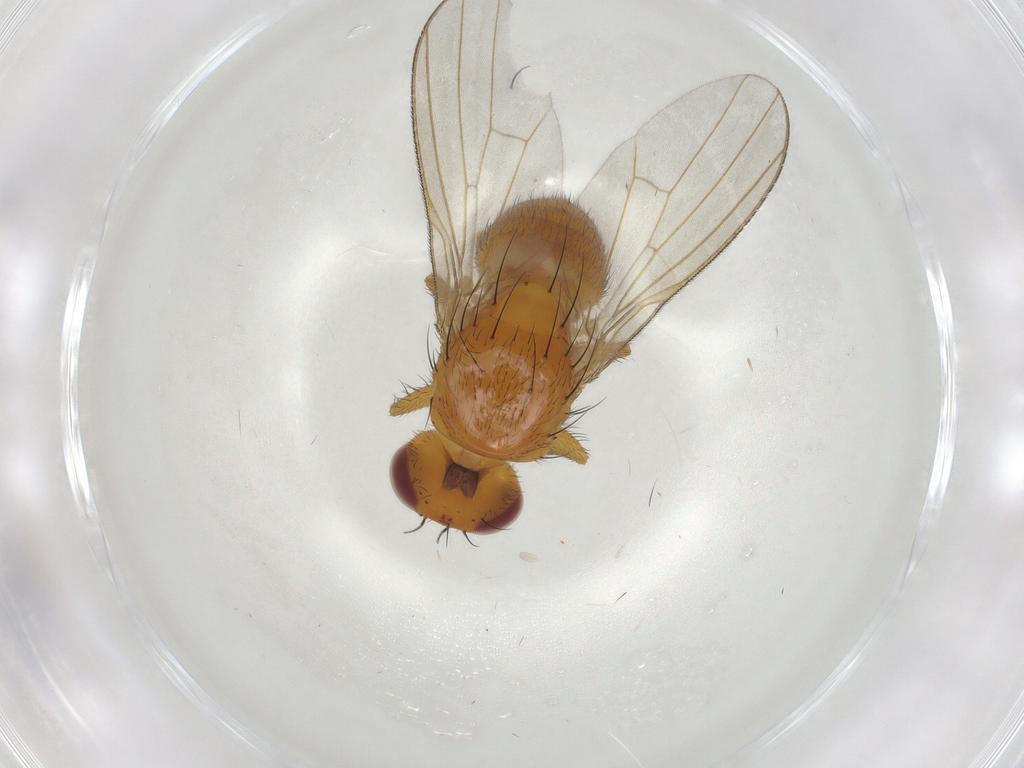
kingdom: Animalia
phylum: Arthropoda
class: Insecta
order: Diptera
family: Lauxaniidae
